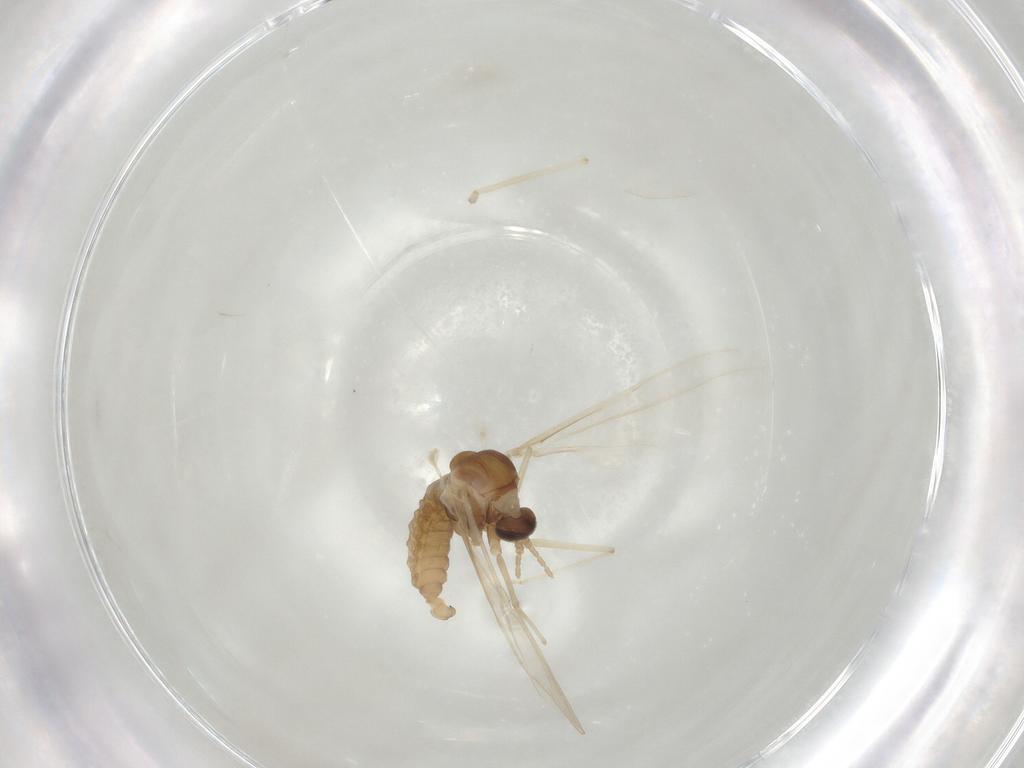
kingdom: Animalia
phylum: Arthropoda
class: Insecta
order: Diptera
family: Cecidomyiidae
